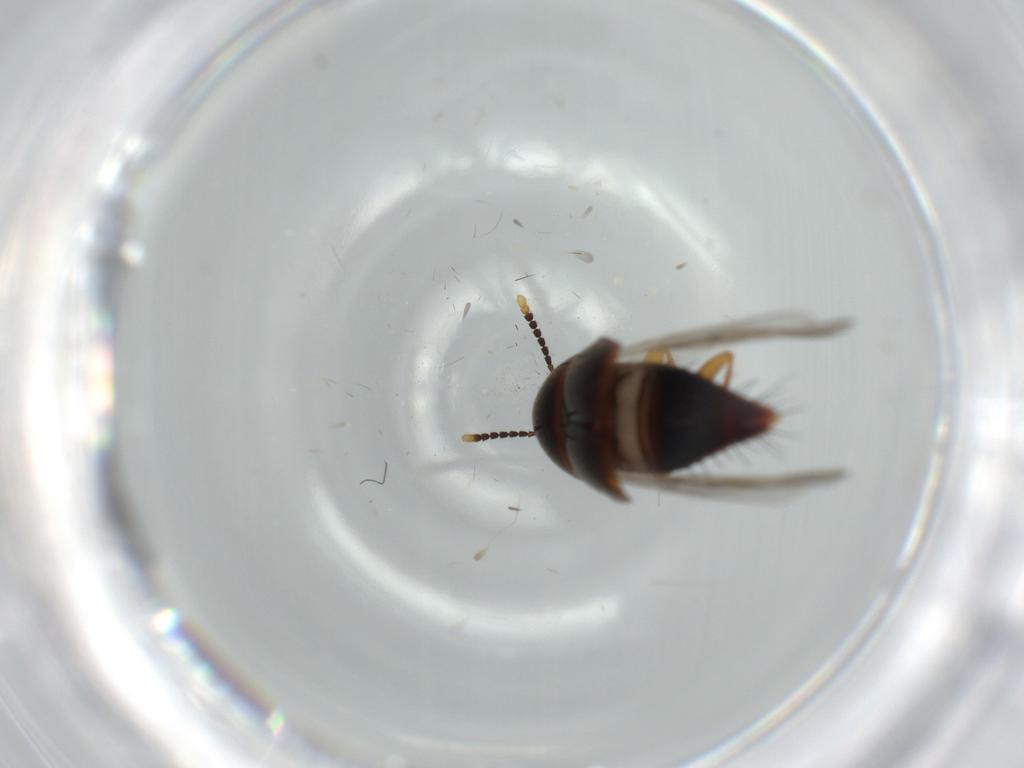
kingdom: Animalia
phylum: Arthropoda
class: Insecta
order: Coleoptera
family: Staphylinidae
